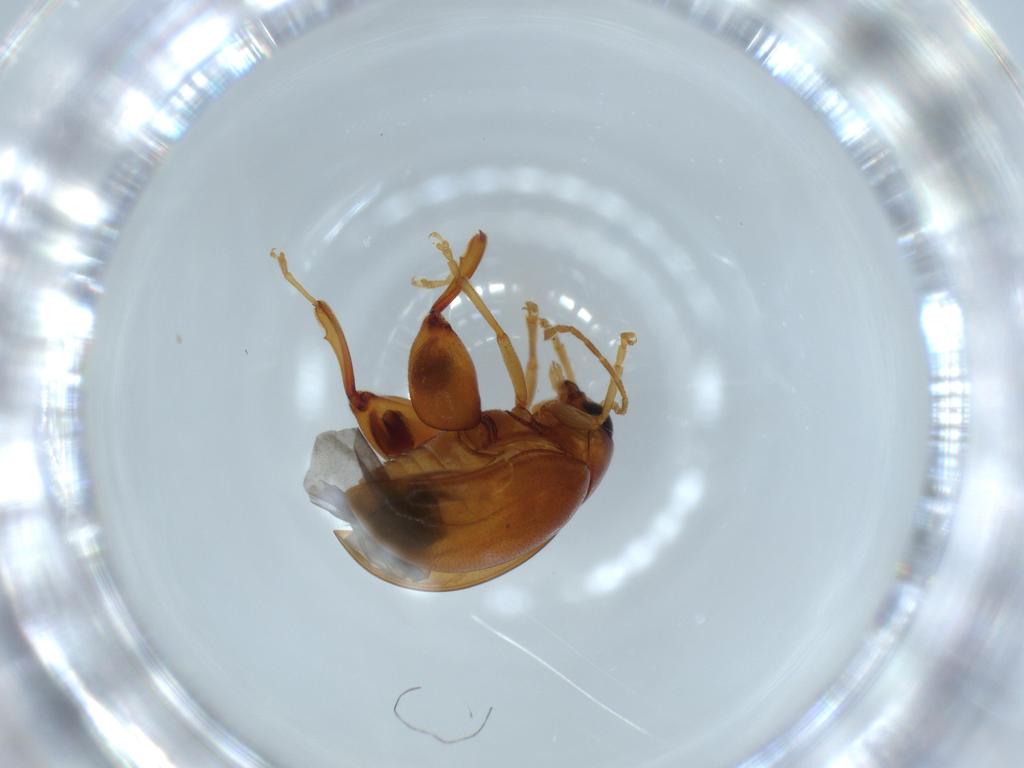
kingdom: Animalia
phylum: Arthropoda
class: Insecta
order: Coleoptera
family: Chrysomelidae
